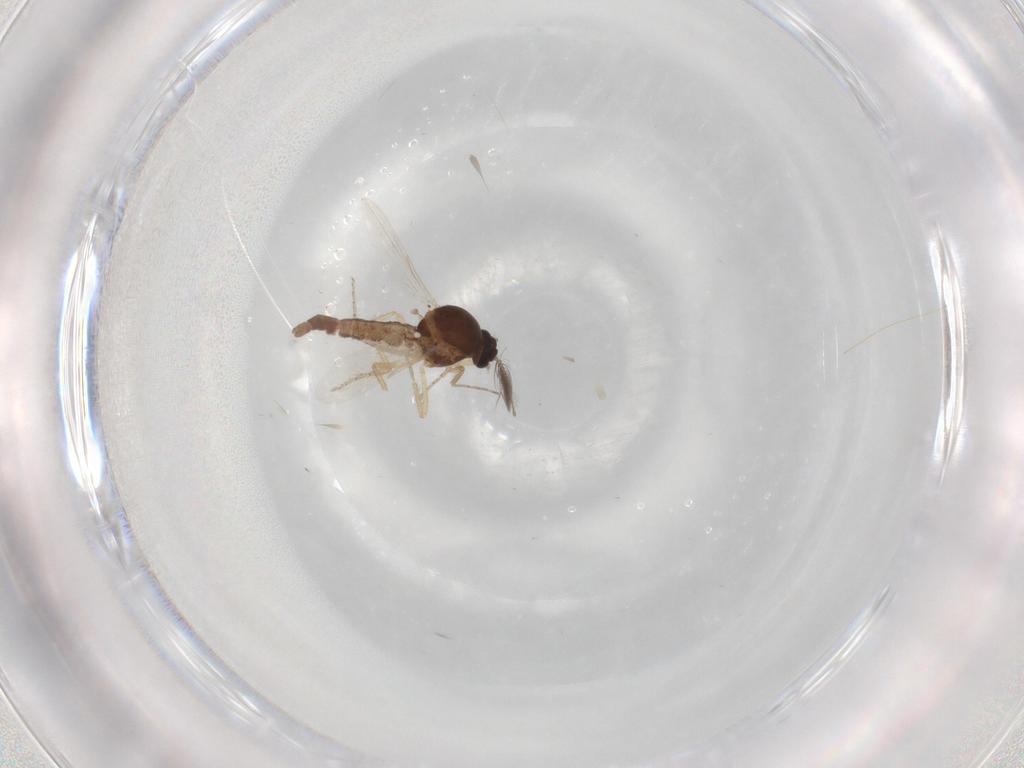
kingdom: Animalia
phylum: Arthropoda
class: Insecta
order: Diptera
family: Ceratopogonidae
